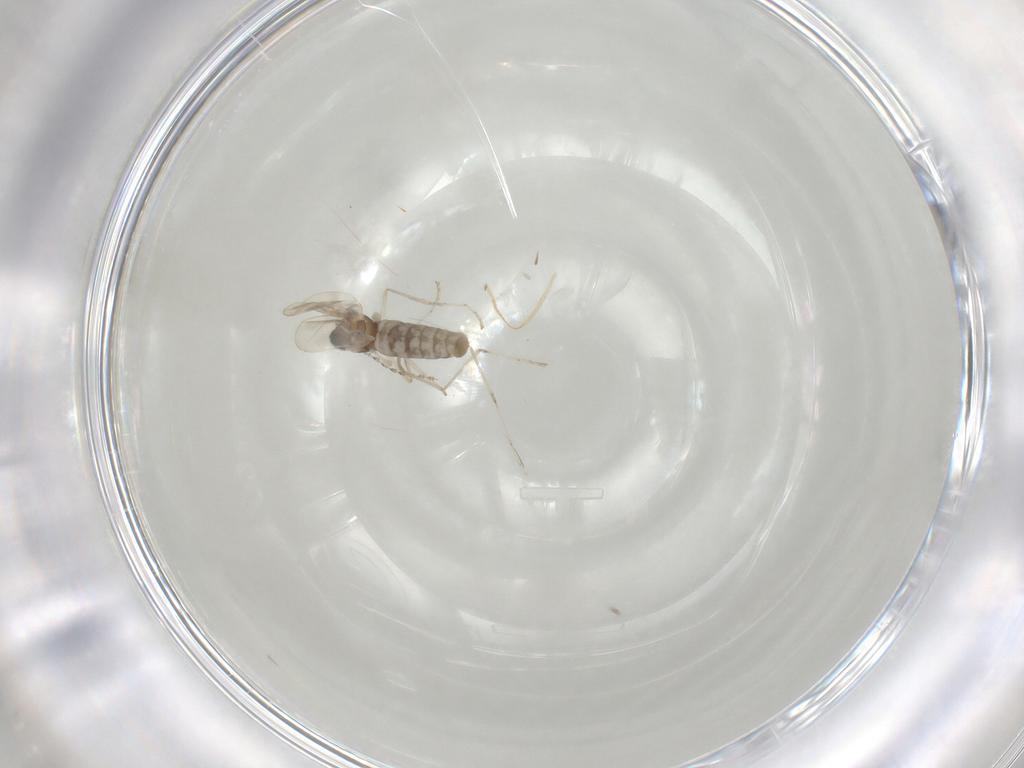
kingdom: Animalia
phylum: Arthropoda
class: Insecta
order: Diptera
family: Cecidomyiidae
